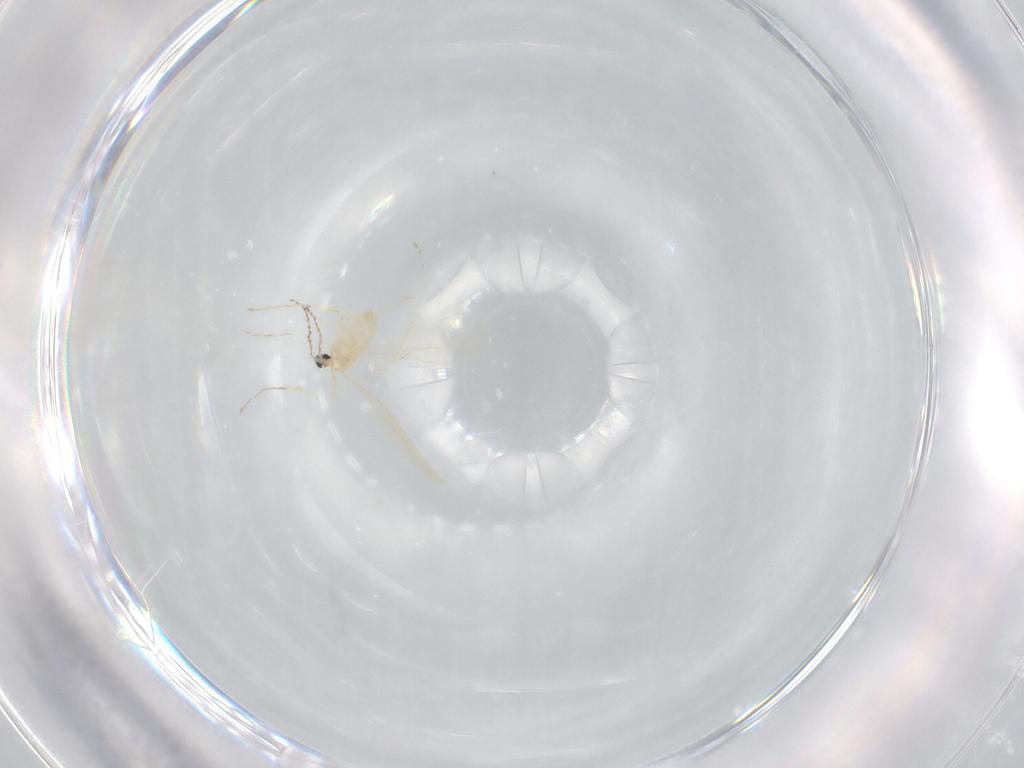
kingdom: Animalia
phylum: Arthropoda
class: Insecta
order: Diptera
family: Cecidomyiidae
